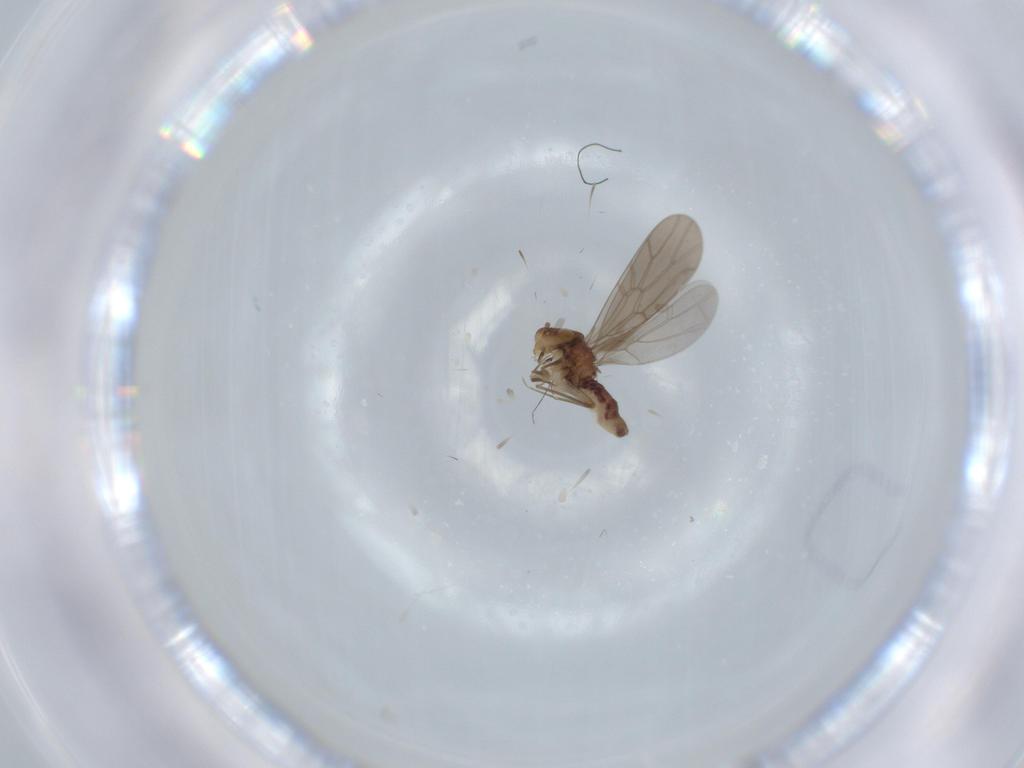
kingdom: Animalia
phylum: Arthropoda
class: Insecta
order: Psocodea
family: Lepidopsocidae
